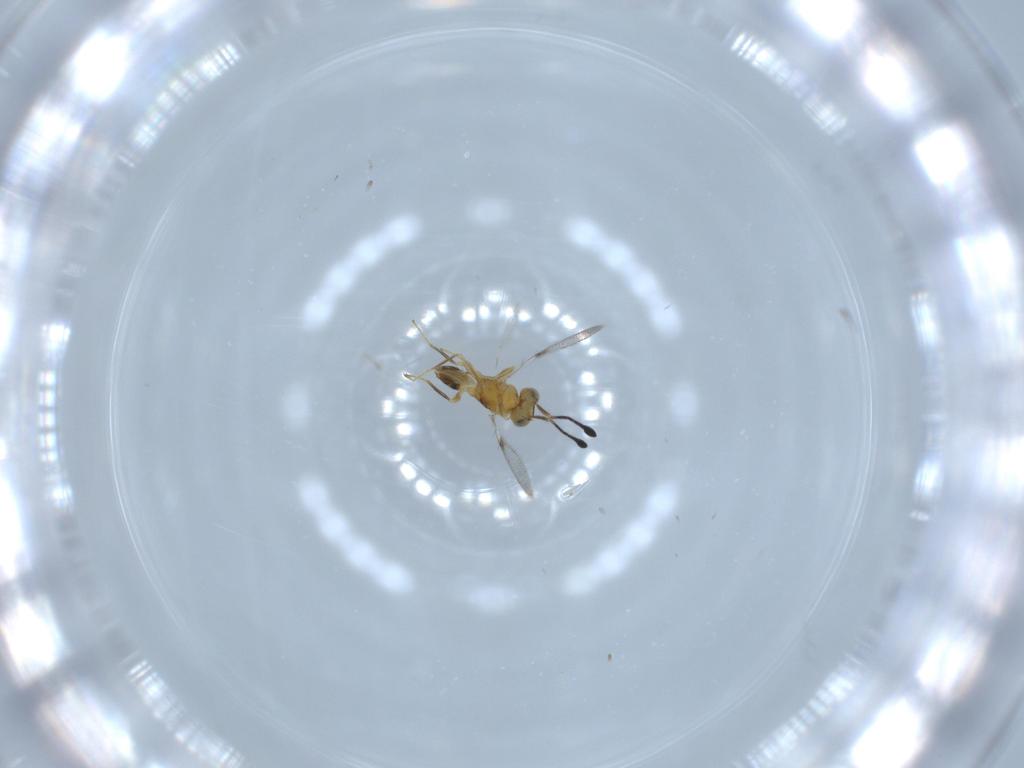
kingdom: Animalia
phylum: Arthropoda
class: Insecta
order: Hymenoptera
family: Mymaridae
